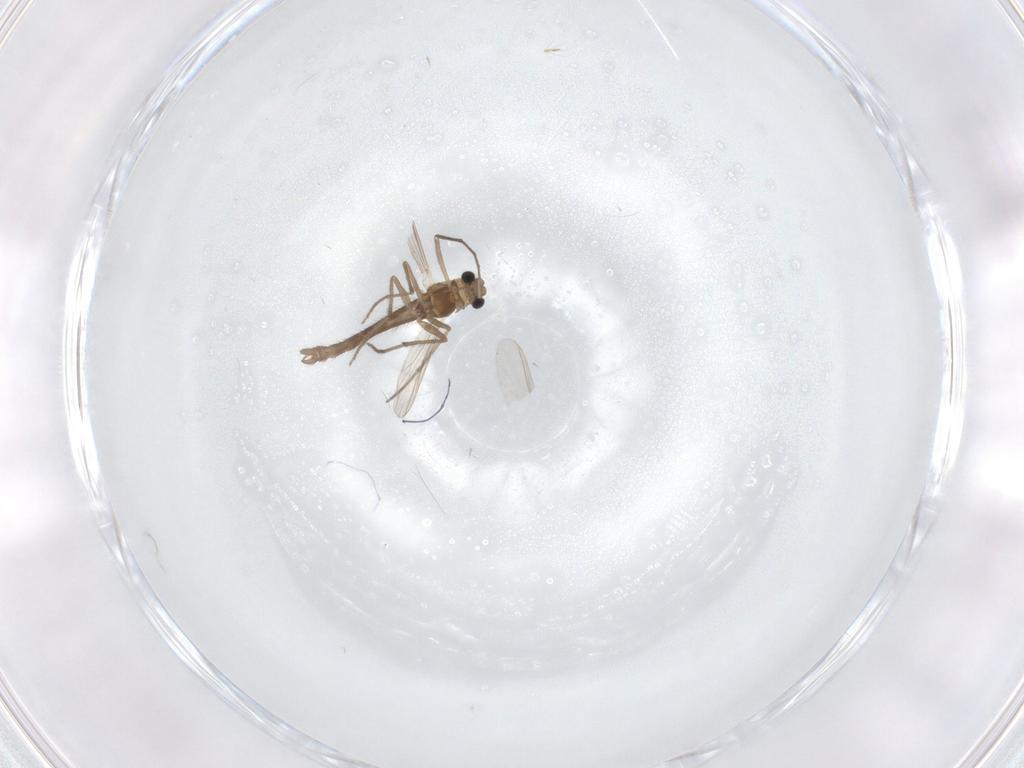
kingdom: Animalia
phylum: Arthropoda
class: Insecta
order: Diptera
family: Chironomidae
